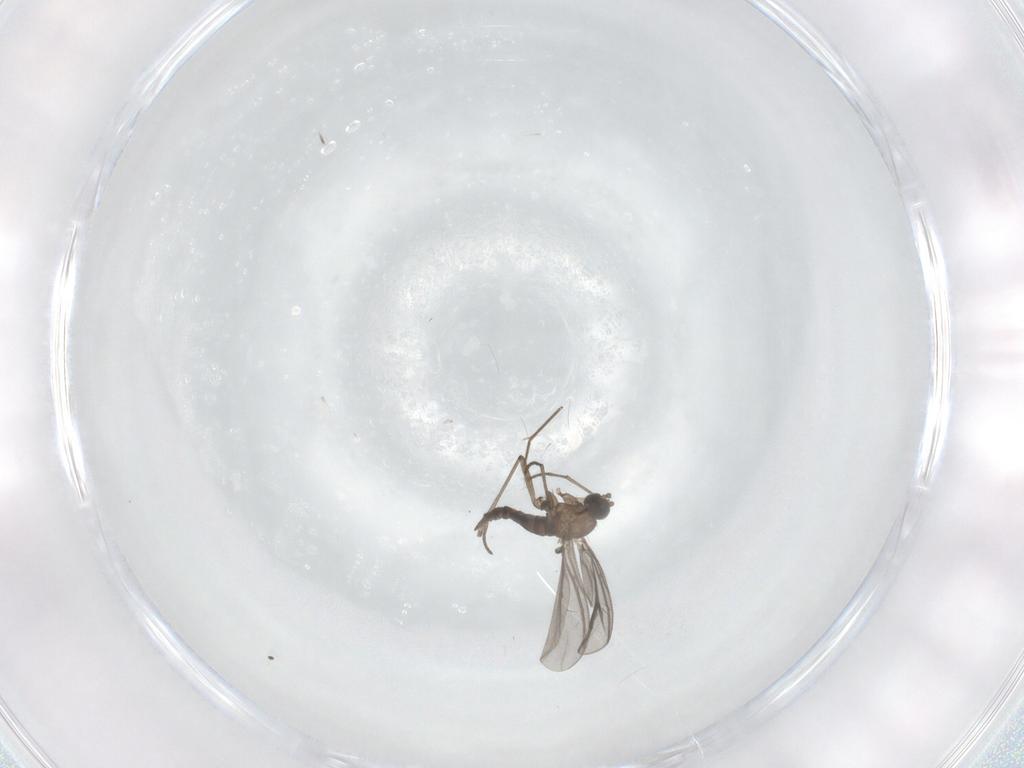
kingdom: Animalia
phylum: Arthropoda
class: Insecta
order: Diptera
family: Chironomidae
